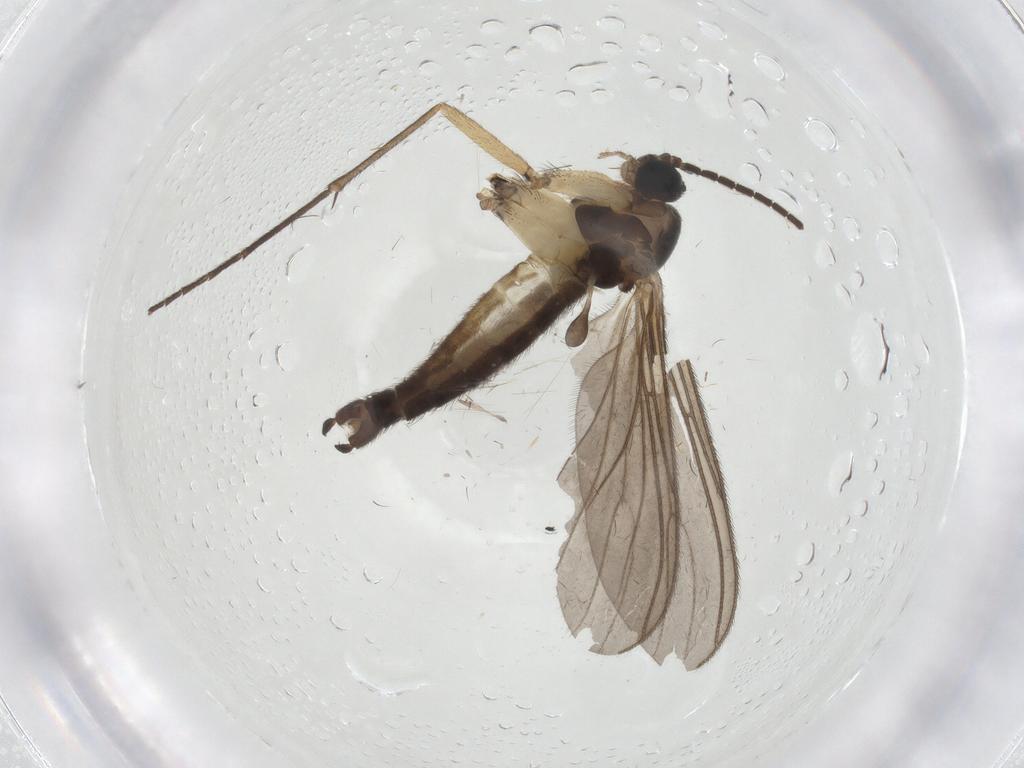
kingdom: Animalia
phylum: Arthropoda
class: Insecta
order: Diptera
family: Sciaridae
